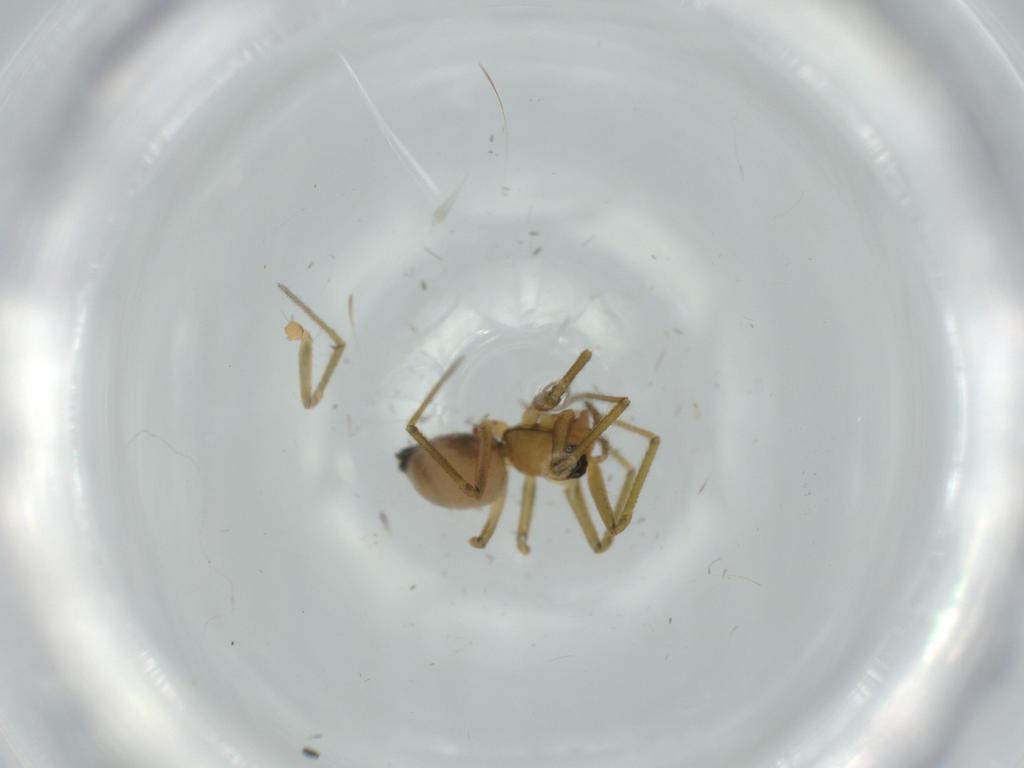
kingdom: Animalia
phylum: Arthropoda
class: Arachnida
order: Araneae
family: Linyphiidae
